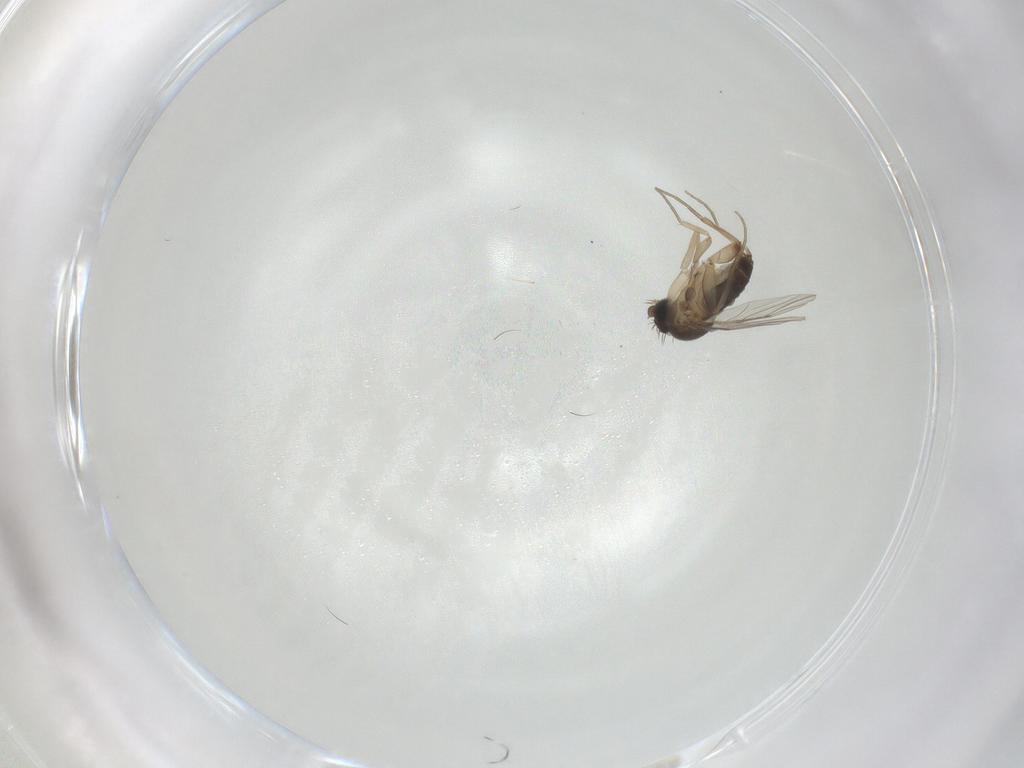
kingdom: Animalia
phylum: Arthropoda
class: Insecta
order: Diptera
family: Phoridae
